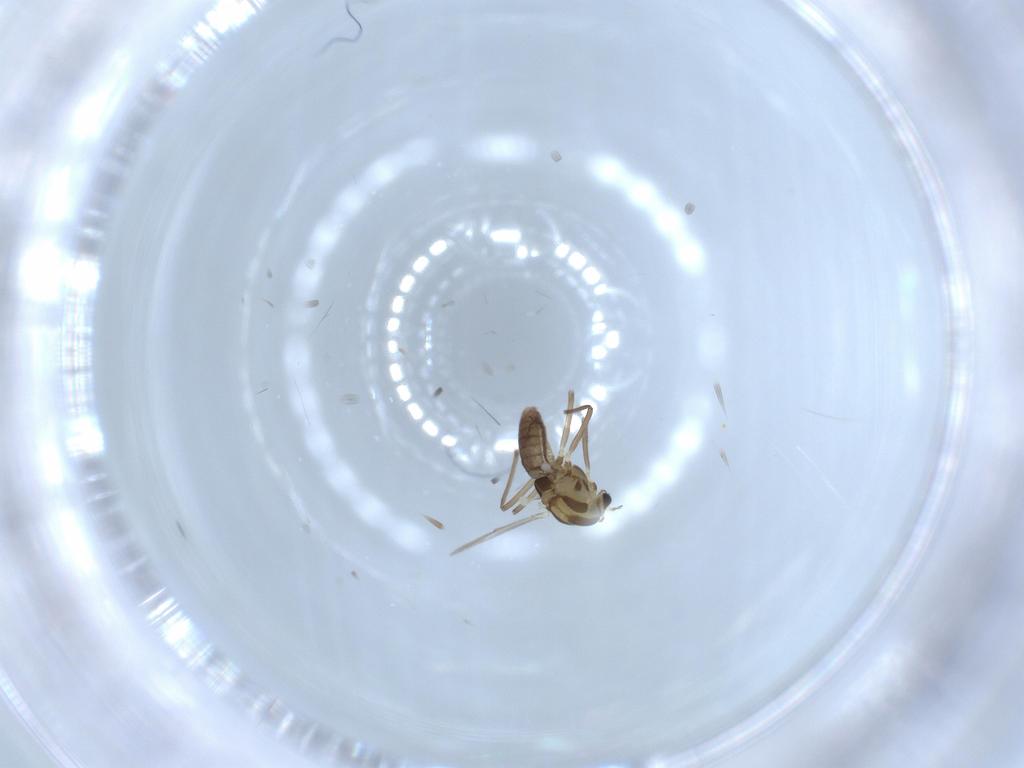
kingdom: Animalia
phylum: Arthropoda
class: Insecta
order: Diptera
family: Chironomidae
